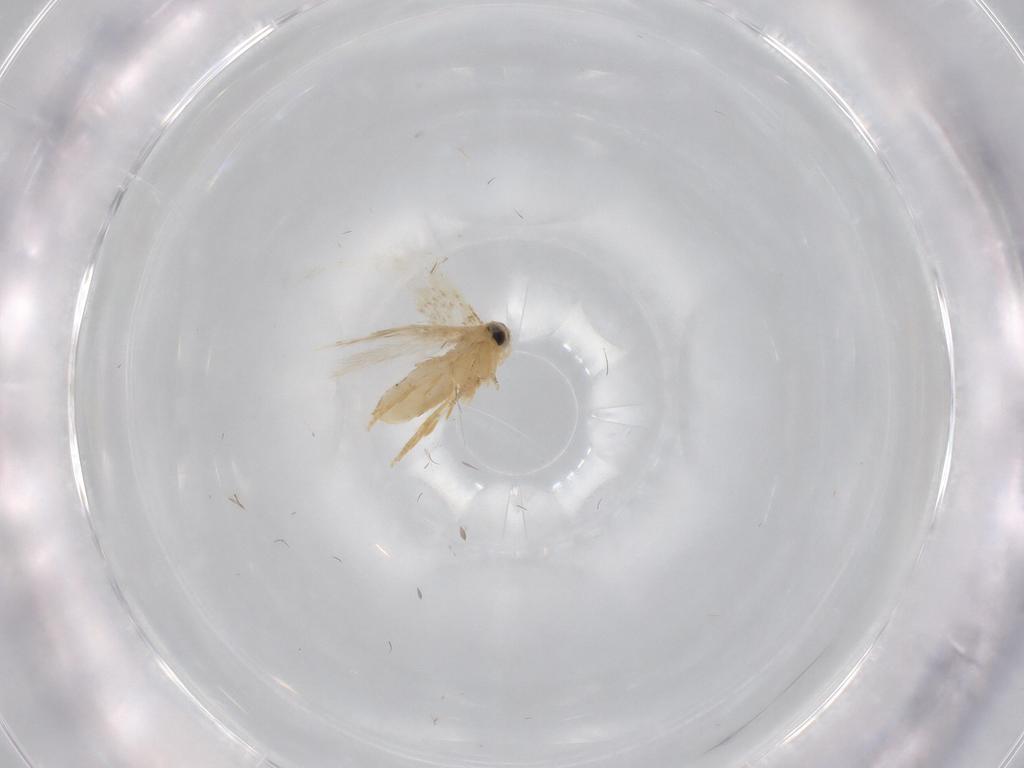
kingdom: Animalia
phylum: Arthropoda
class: Insecta
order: Lepidoptera
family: Nepticulidae
